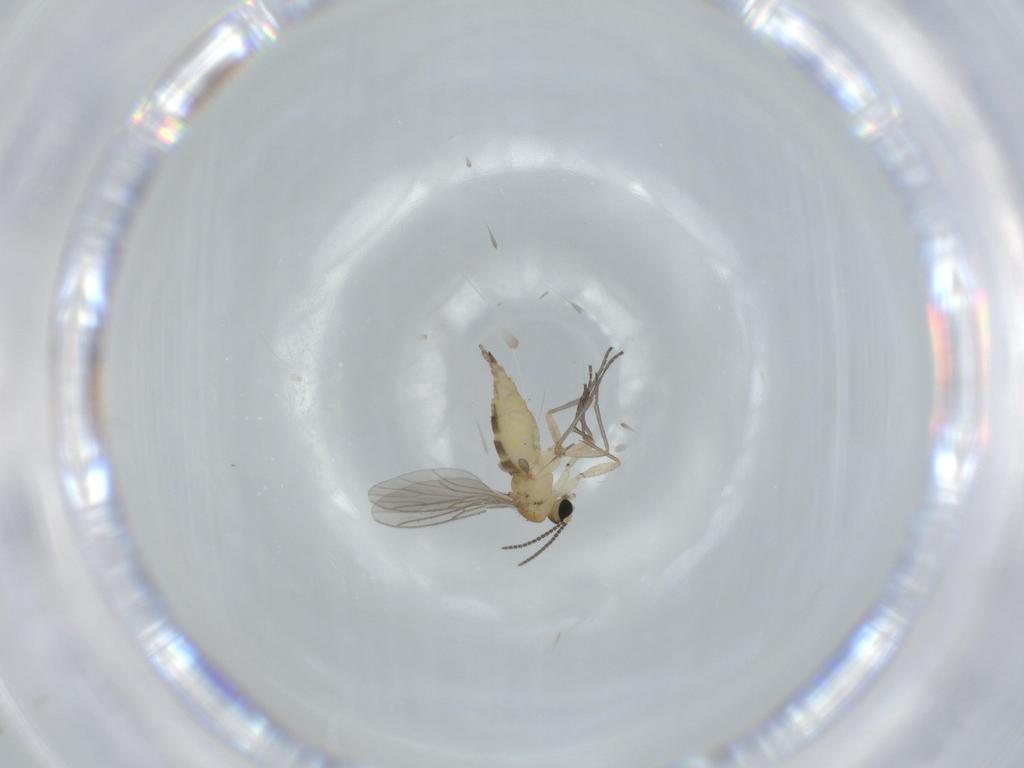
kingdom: Animalia
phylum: Arthropoda
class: Insecta
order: Diptera
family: Sciaridae
